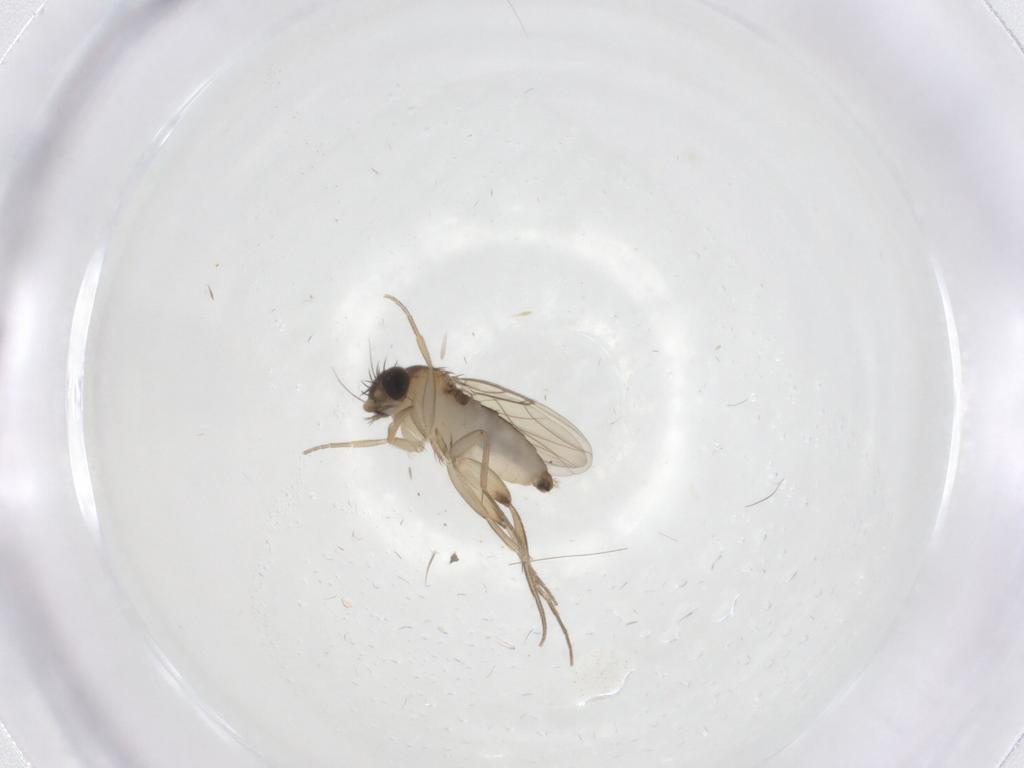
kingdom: Animalia
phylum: Arthropoda
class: Insecta
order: Diptera
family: Phoridae
